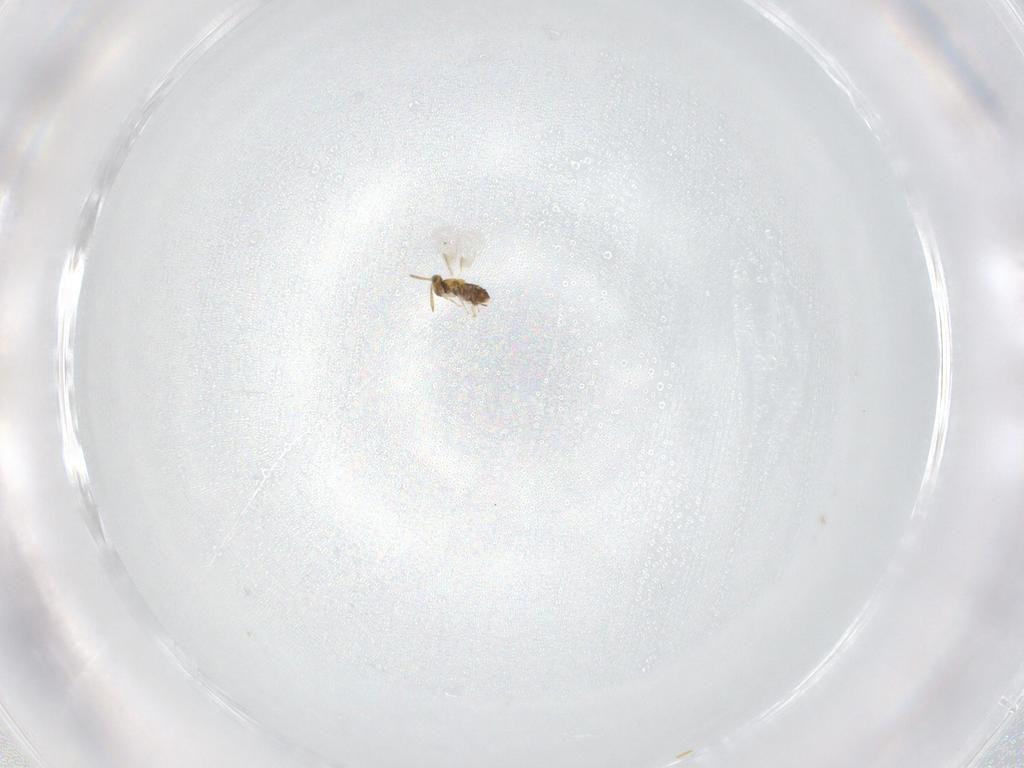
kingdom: Animalia
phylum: Arthropoda
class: Insecta
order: Hymenoptera
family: Aphelinidae
